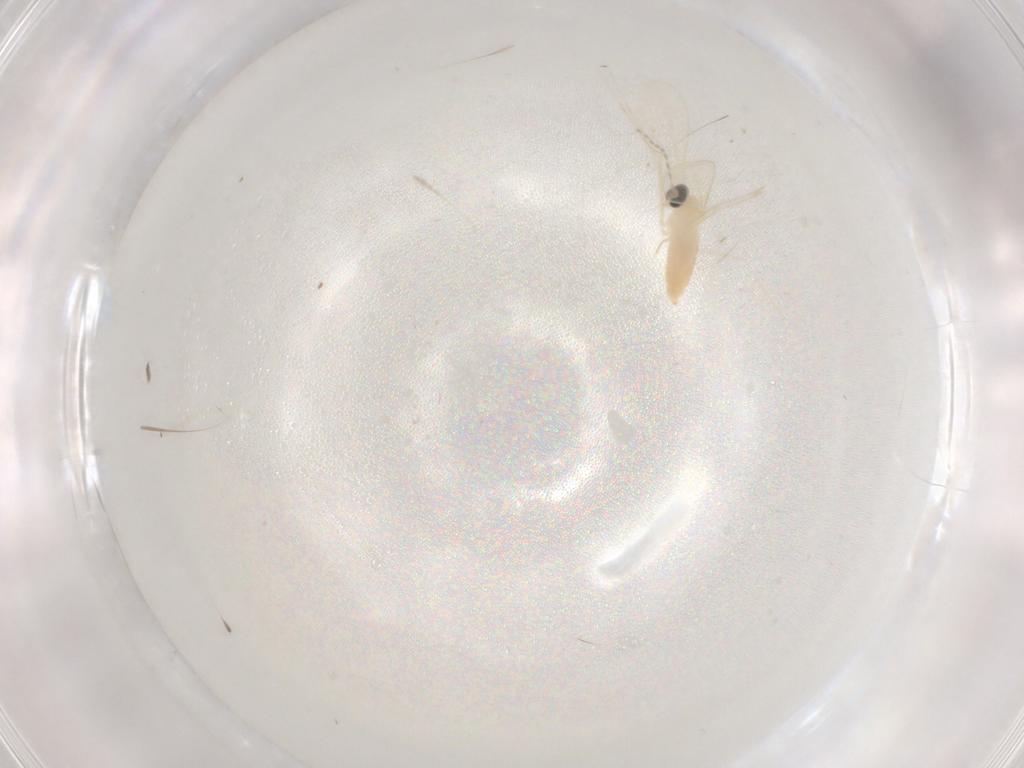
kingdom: Animalia
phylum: Arthropoda
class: Insecta
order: Diptera
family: Cecidomyiidae
